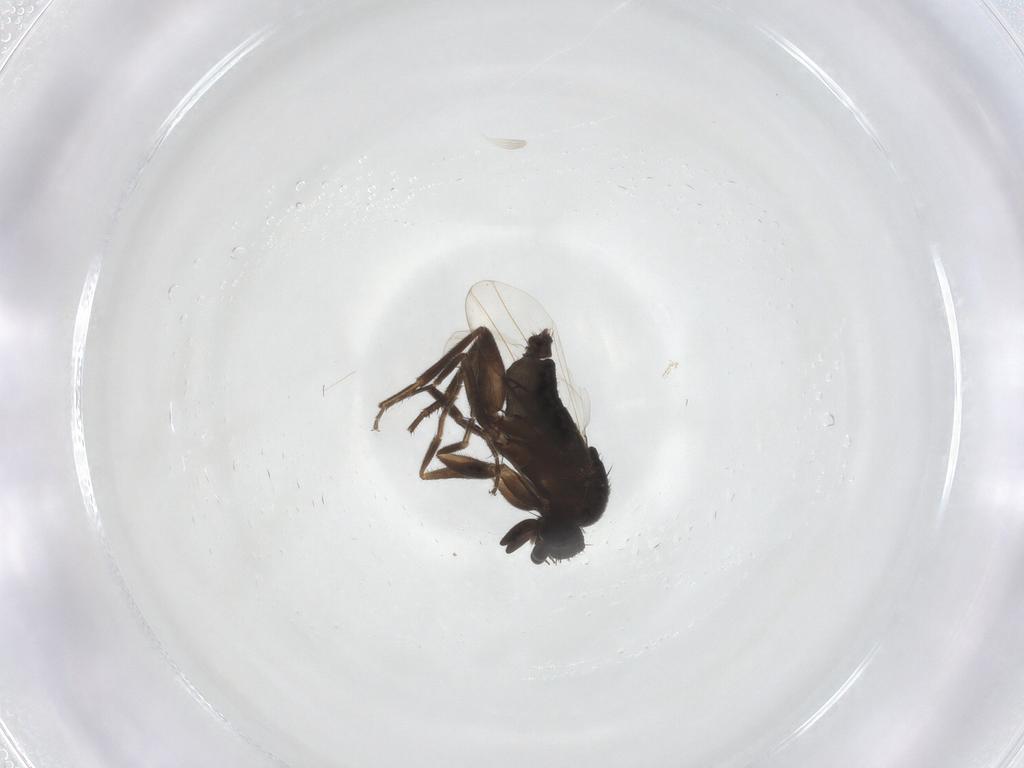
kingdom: Animalia
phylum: Arthropoda
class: Insecta
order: Diptera
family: Phoridae
